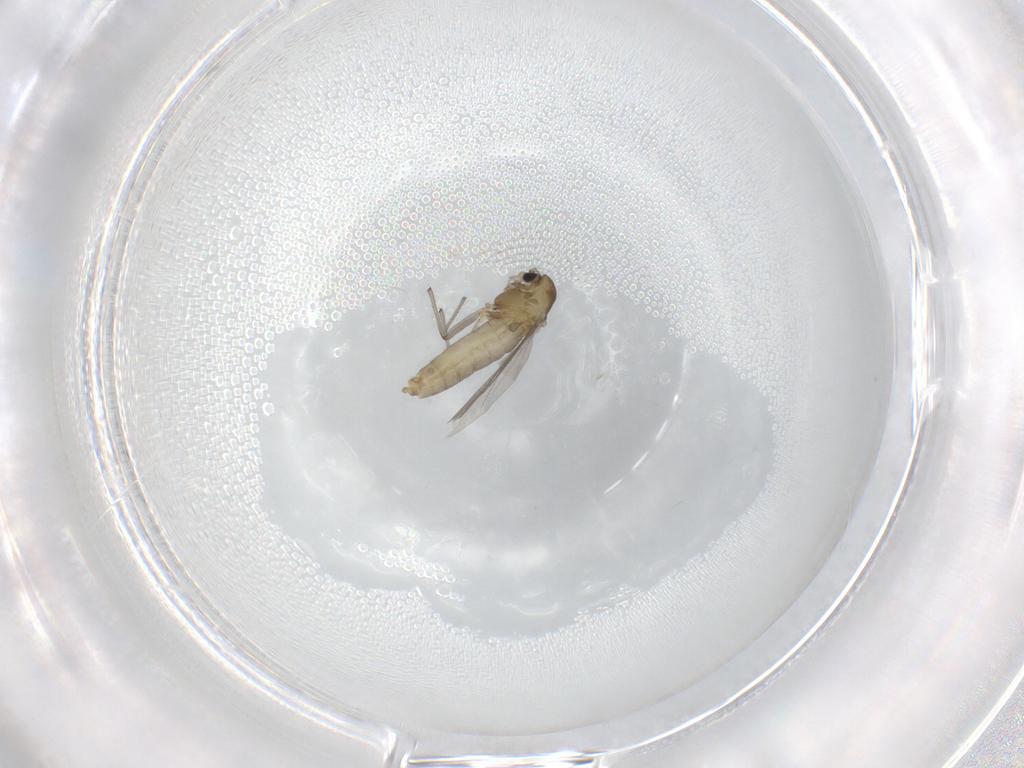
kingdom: Animalia
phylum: Arthropoda
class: Insecta
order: Diptera
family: Chironomidae
